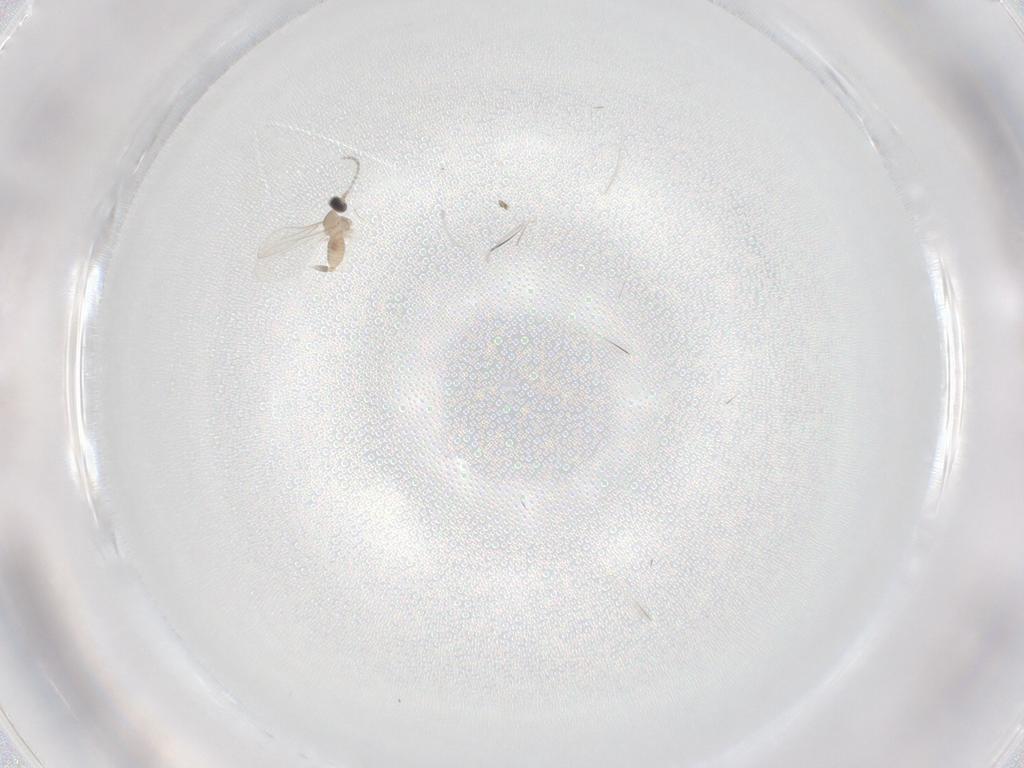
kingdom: Animalia
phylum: Arthropoda
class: Insecta
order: Diptera
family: Cecidomyiidae
